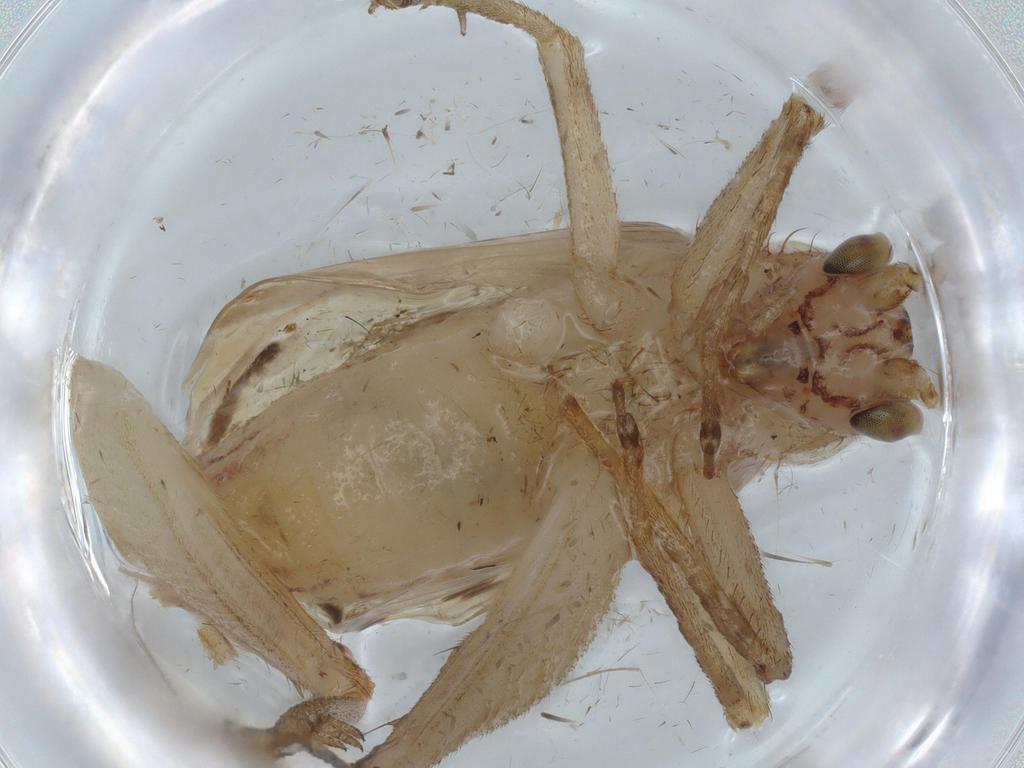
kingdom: Animalia
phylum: Arthropoda
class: Insecta
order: Orthoptera
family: Trigonidiidae
